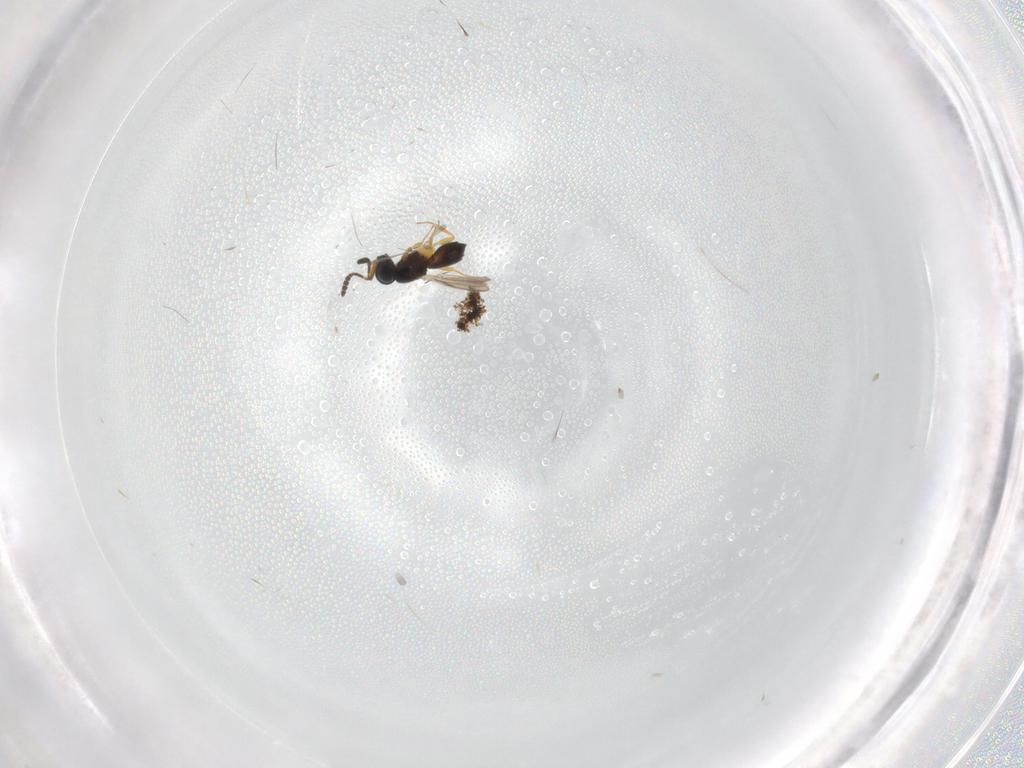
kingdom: Animalia
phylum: Arthropoda
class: Insecta
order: Hymenoptera
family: Scelionidae
